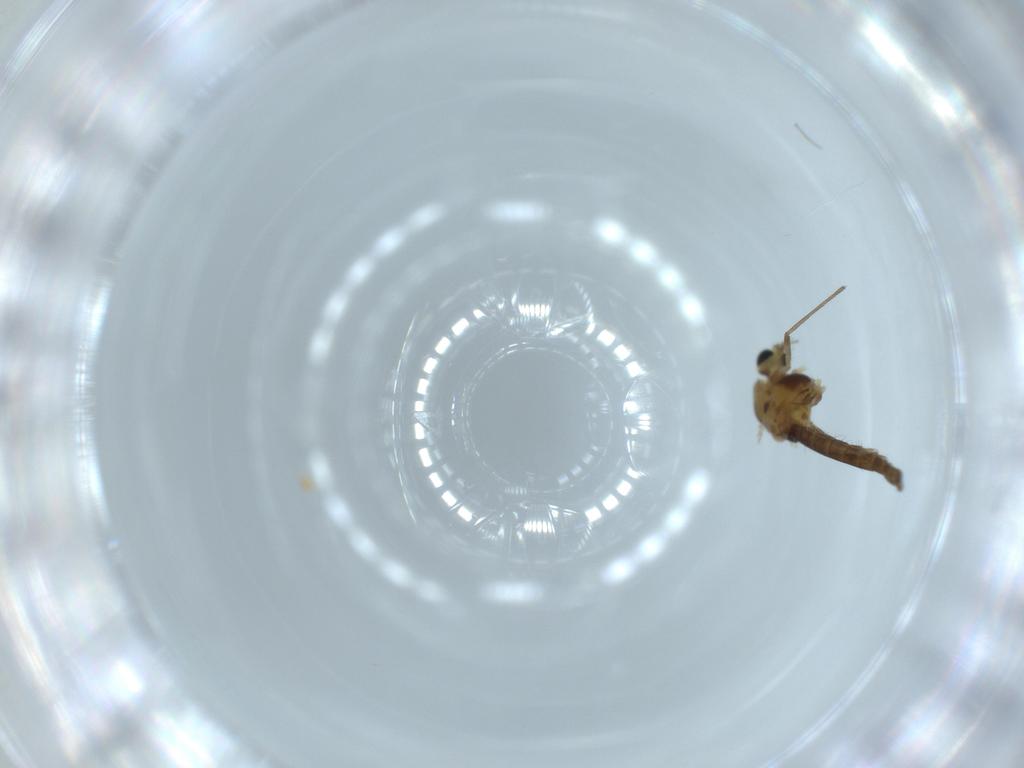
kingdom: Animalia
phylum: Arthropoda
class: Insecta
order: Diptera
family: Chironomidae
